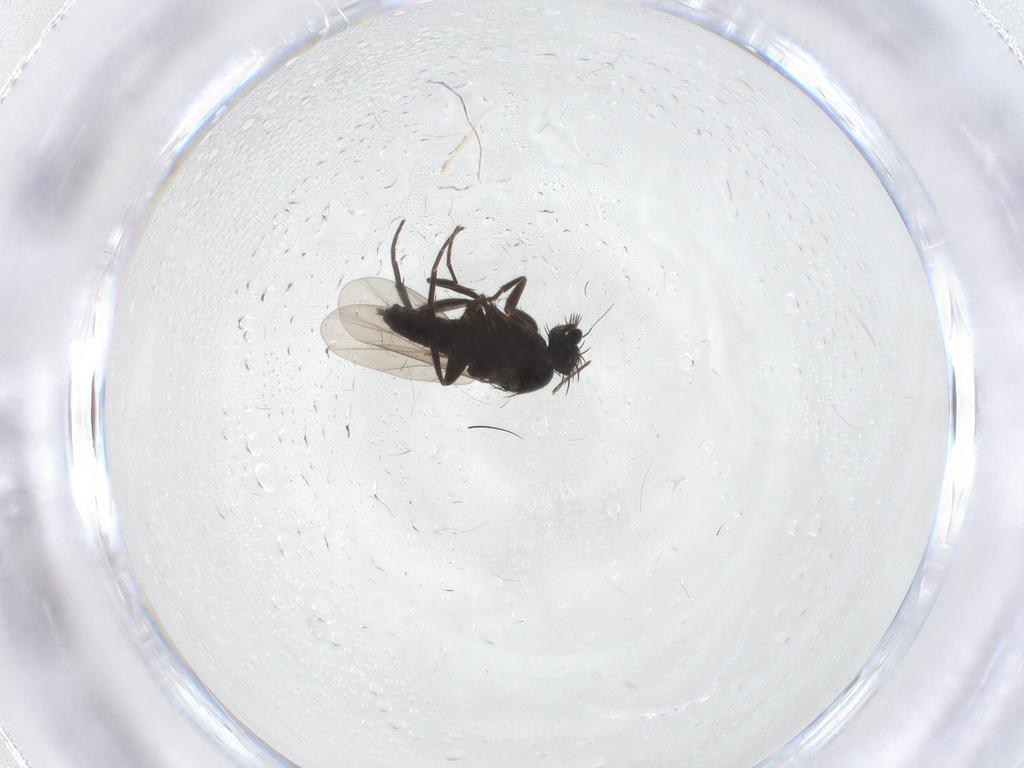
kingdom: Animalia
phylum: Arthropoda
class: Insecta
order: Diptera
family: Phoridae
